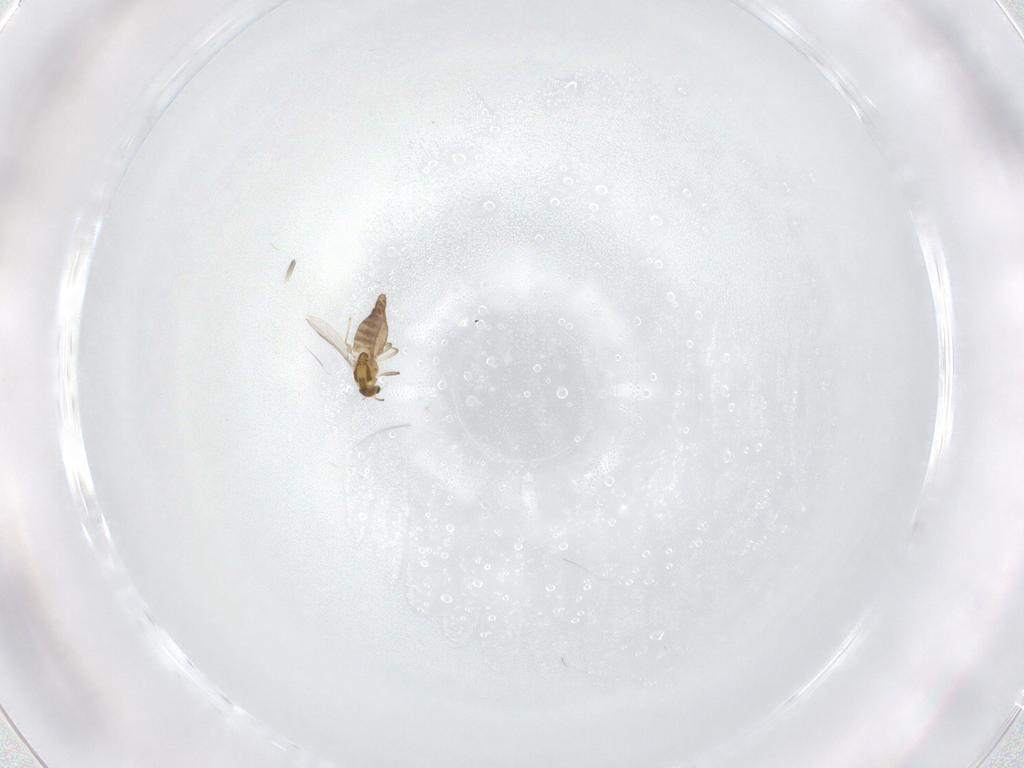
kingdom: Animalia
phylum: Arthropoda
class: Insecta
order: Diptera
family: Chironomidae
